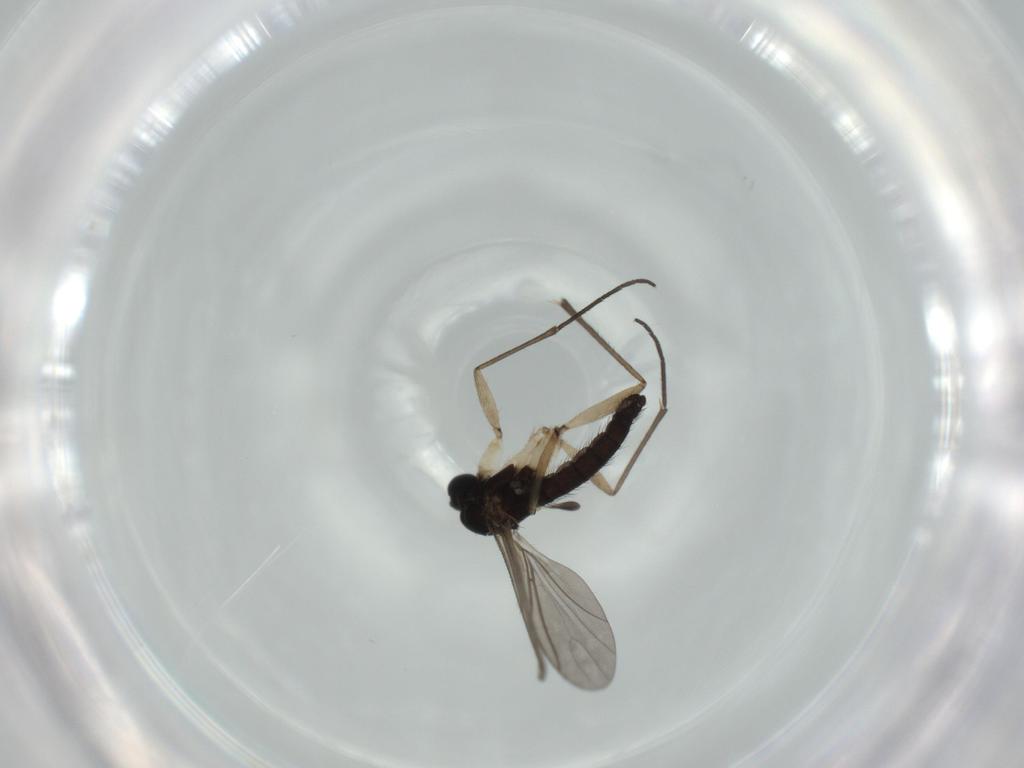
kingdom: Animalia
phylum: Arthropoda
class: Insecta
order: Diptera
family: Sciaridae
